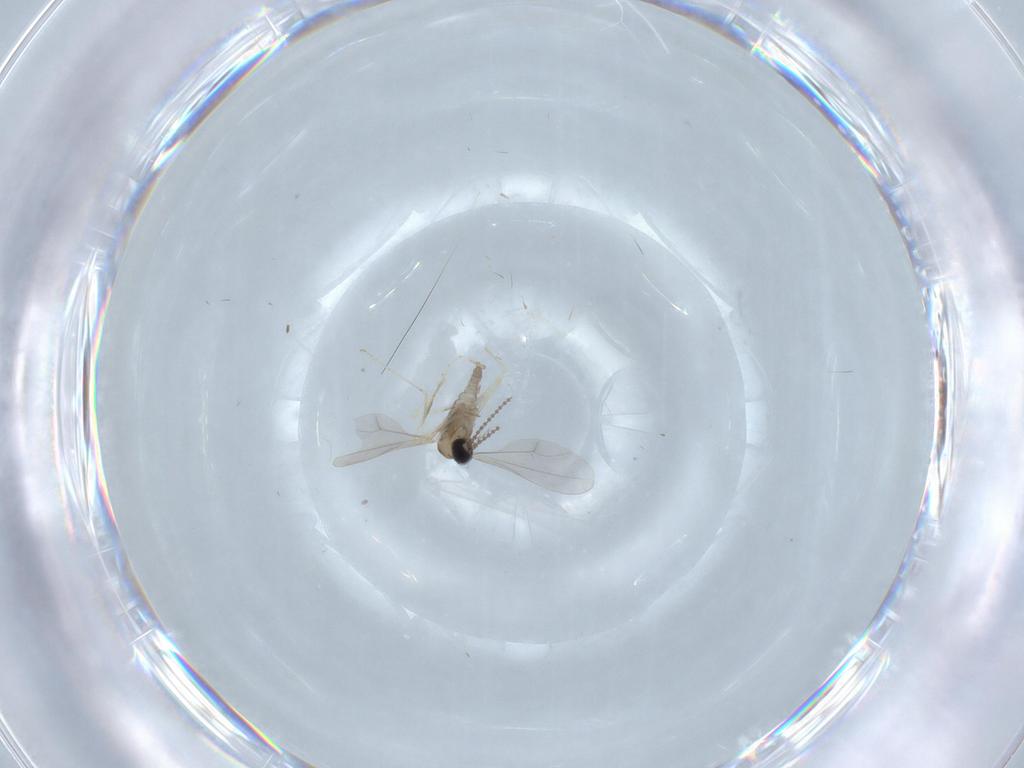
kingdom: Animalia
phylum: Arthropoda
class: Insecta
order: Diptera
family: Cecidomyiidae
